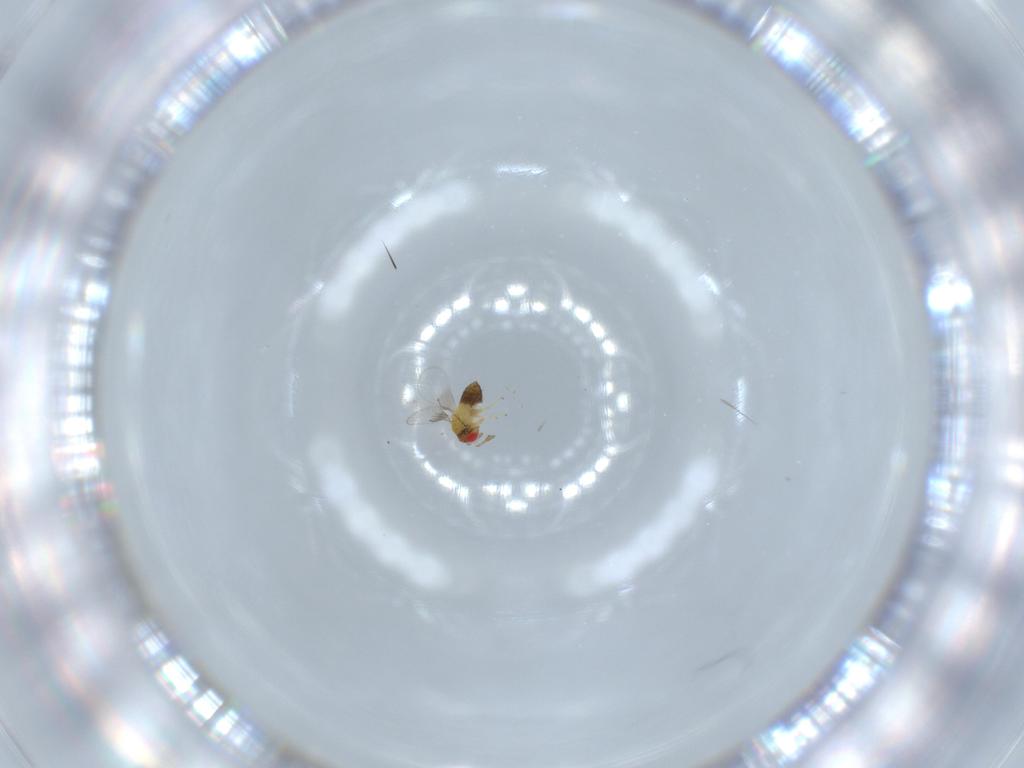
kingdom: Animalia
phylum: Arthropoda
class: Insecta
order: Hymenoptera
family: Trichogrammatidae
